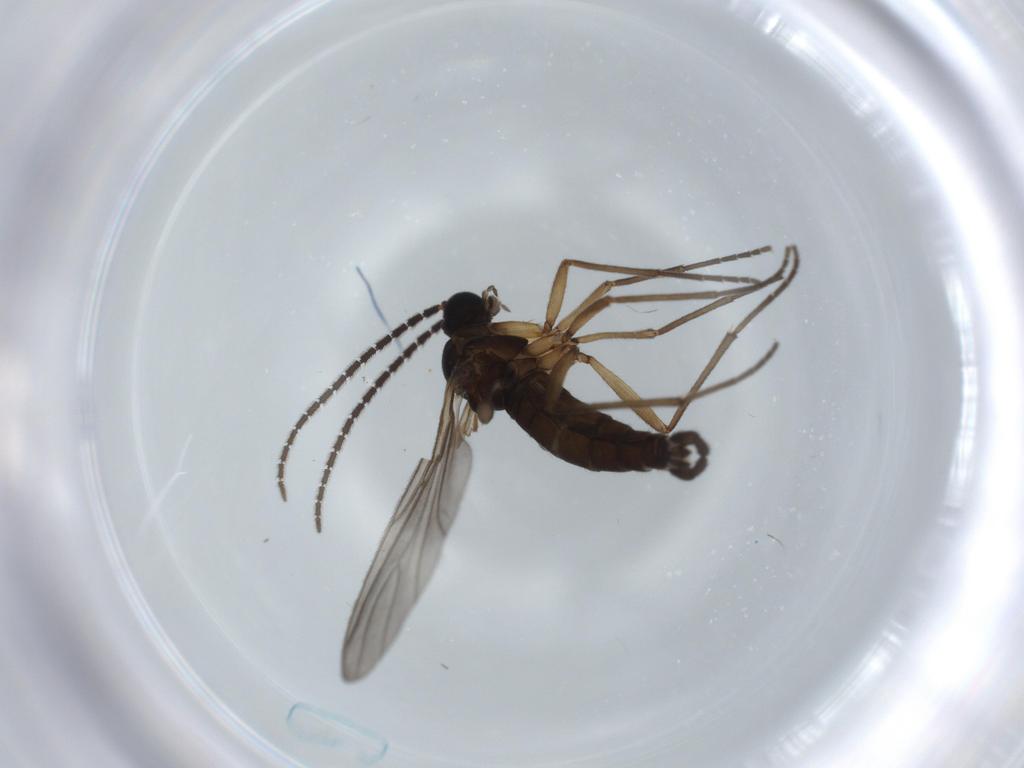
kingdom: Animalia
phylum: Arthropoda
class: Insecta
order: Diptera
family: Sciaridae
